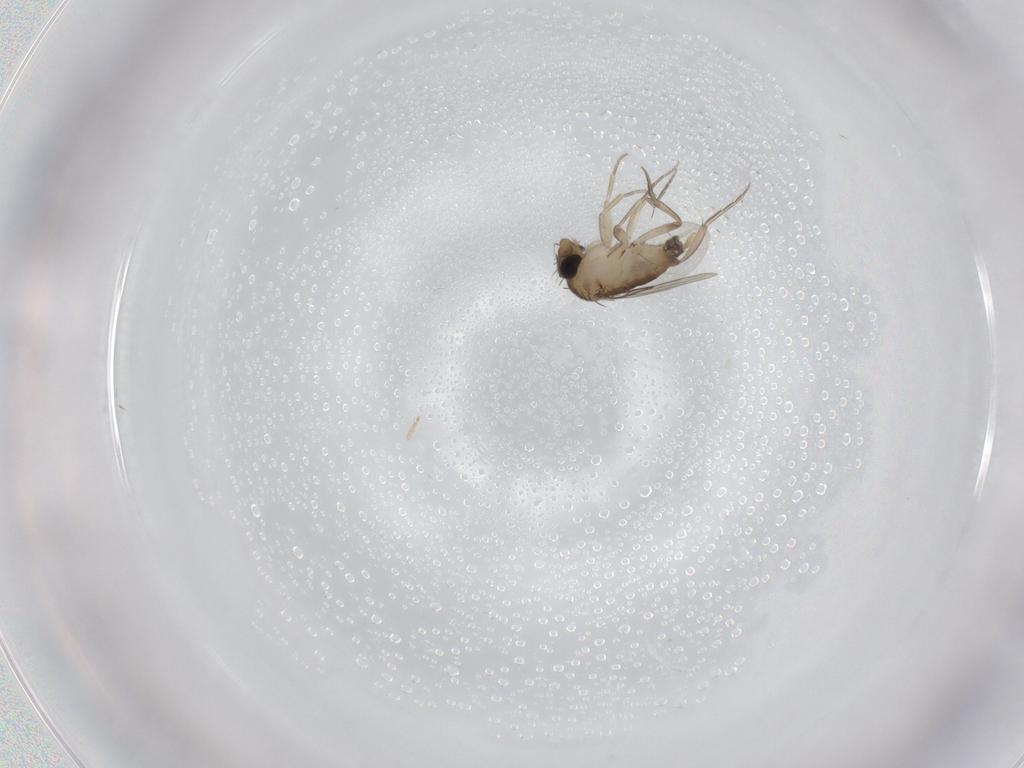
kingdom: Animalia
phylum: Arthropoda
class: Insecta
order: Diptera
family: Phoridae
